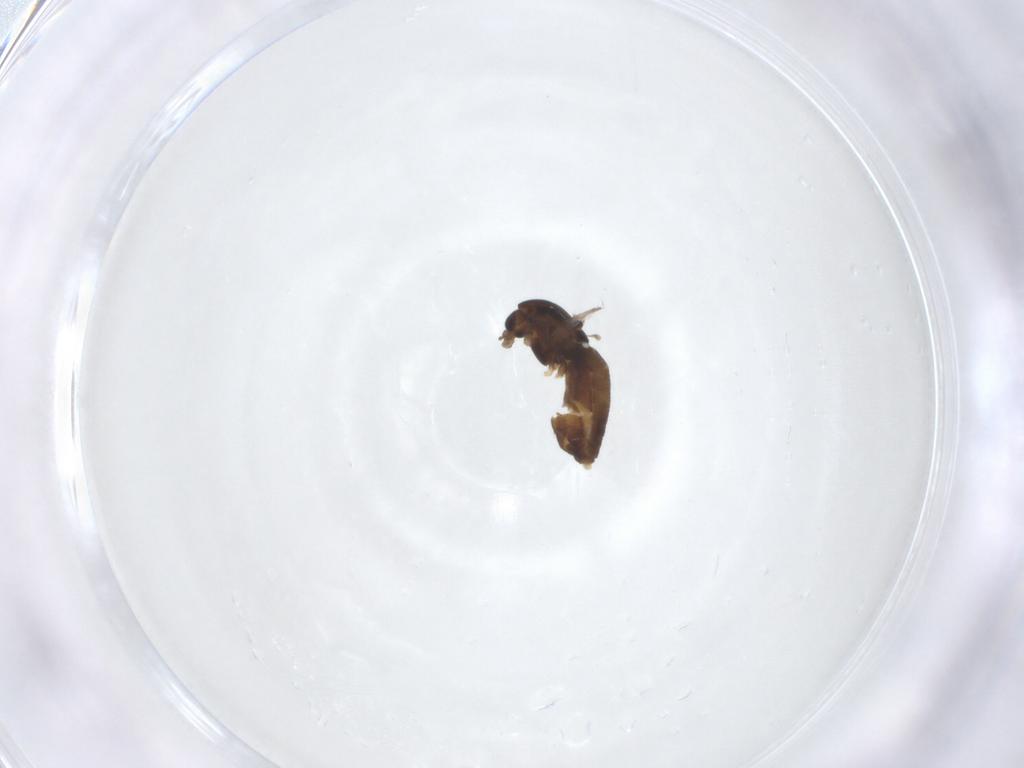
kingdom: Animalia
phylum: Arthropoda
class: Insecta
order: Diptera
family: Chironomidae
